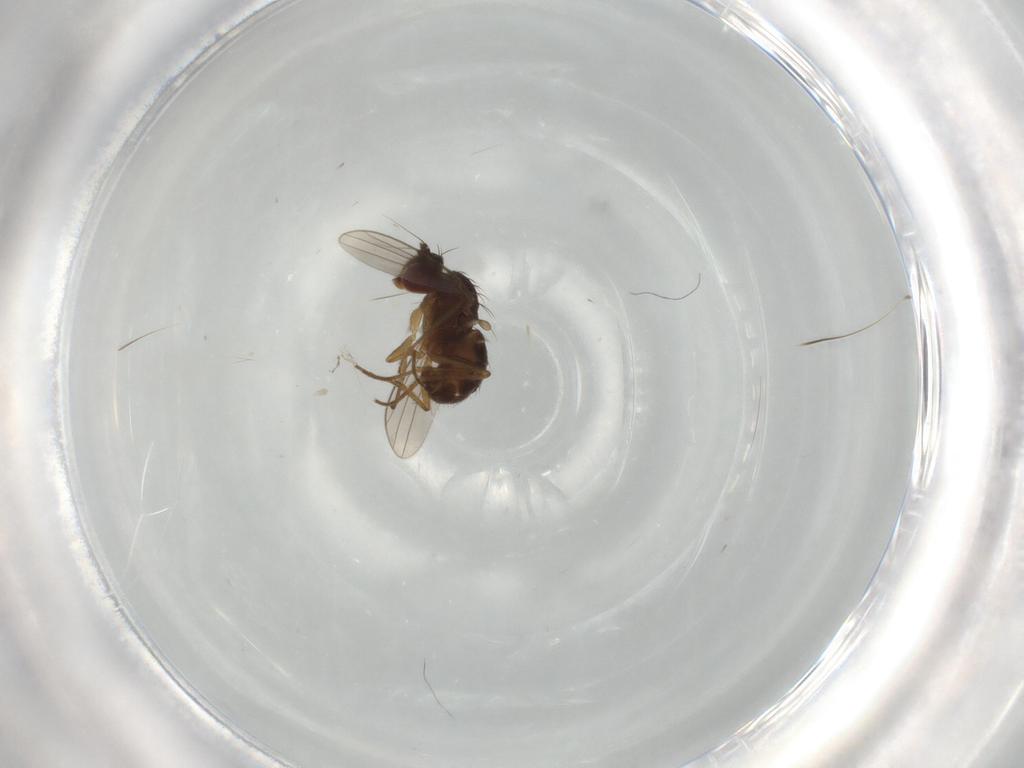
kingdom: Animalia
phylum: Arthropoda
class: Insecta
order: Diptera
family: Dolichopodidae
